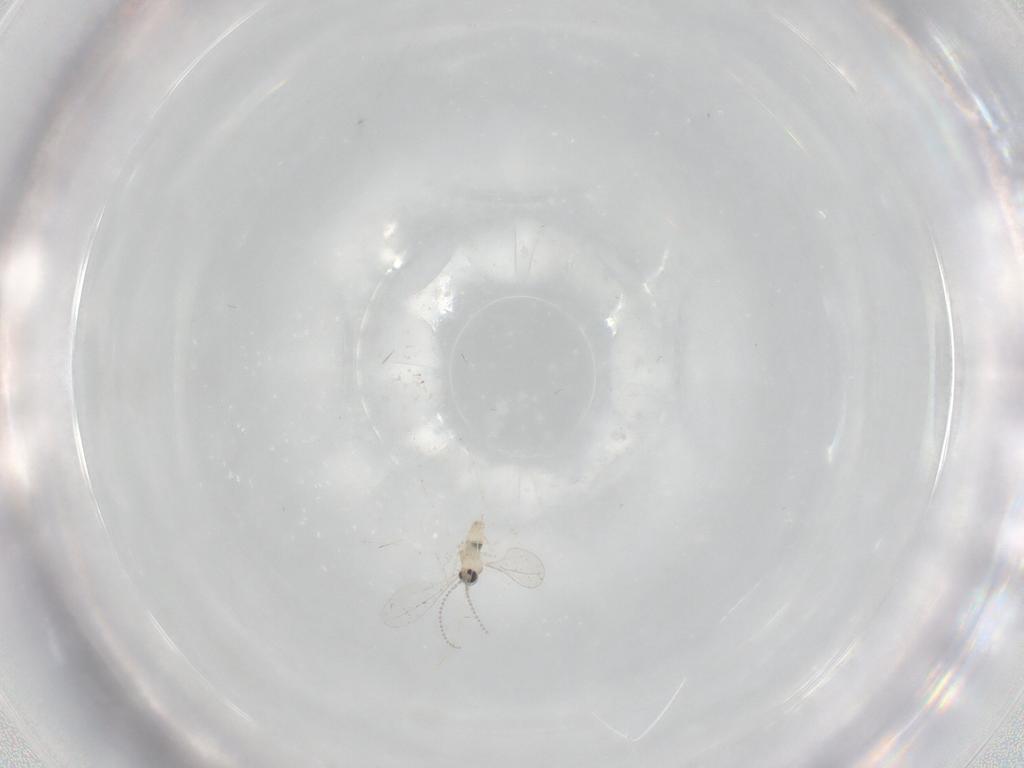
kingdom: Animalia
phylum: Arthropoda
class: Insecta
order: Diptera
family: Cecidomyiidae
